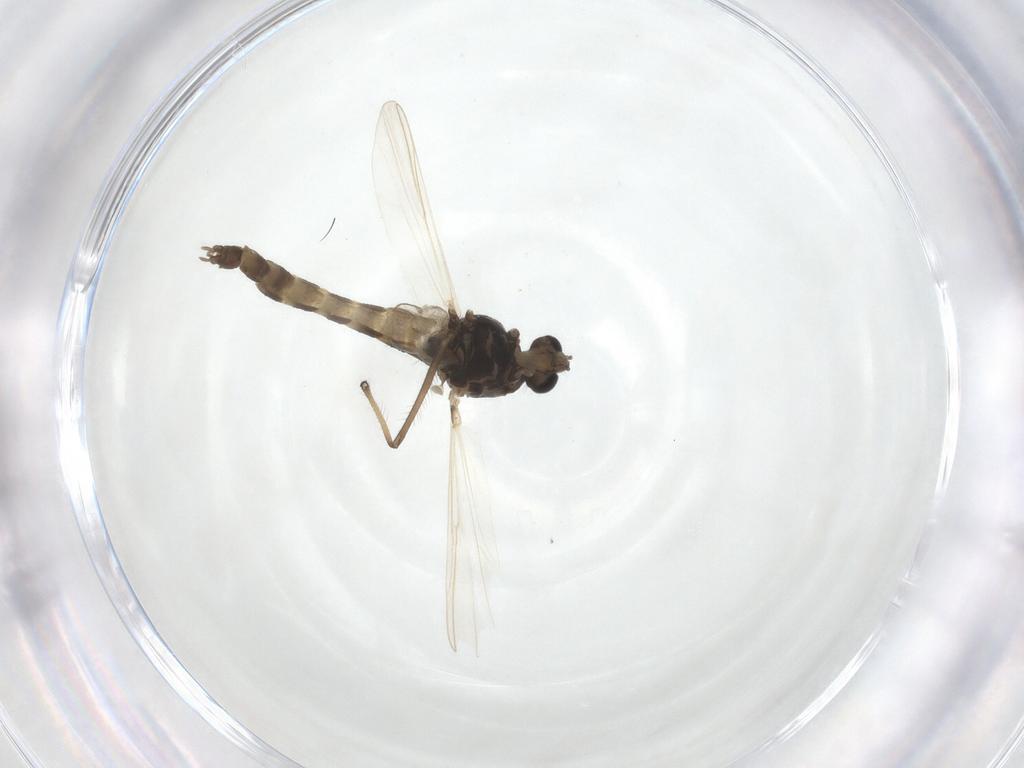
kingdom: Animalia
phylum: Arthropoda
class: Insecta
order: Diptera
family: Chironomidae
